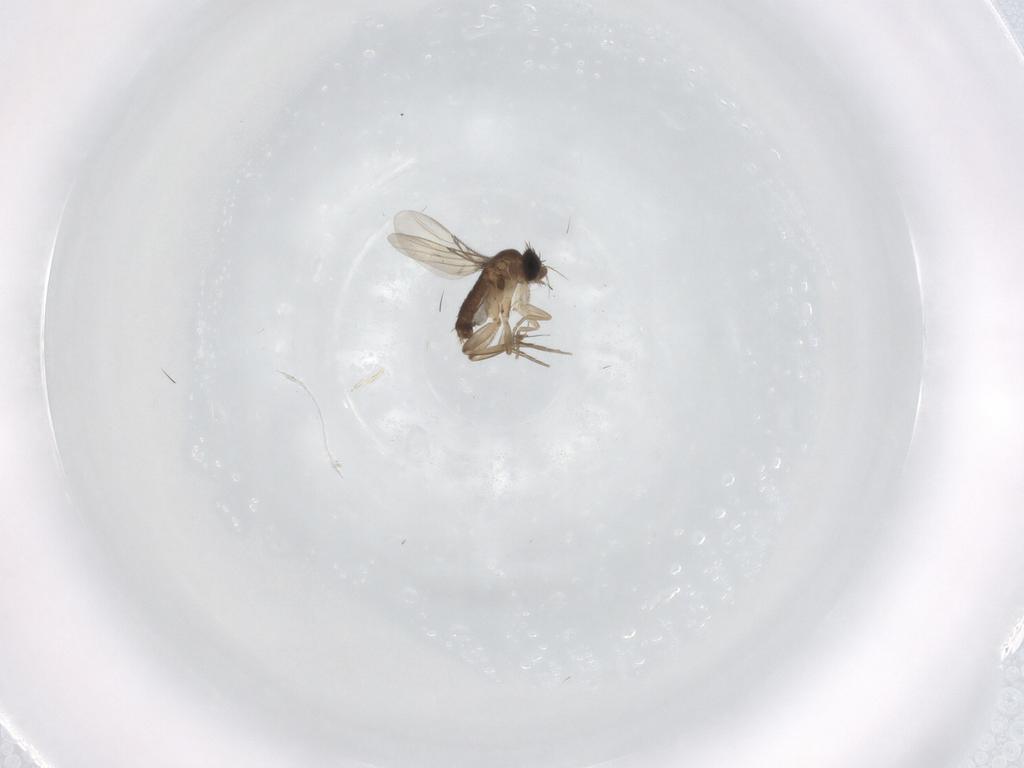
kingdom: Animalia
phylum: Arthropoda
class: Insecta
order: Diptera
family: Phoridae
